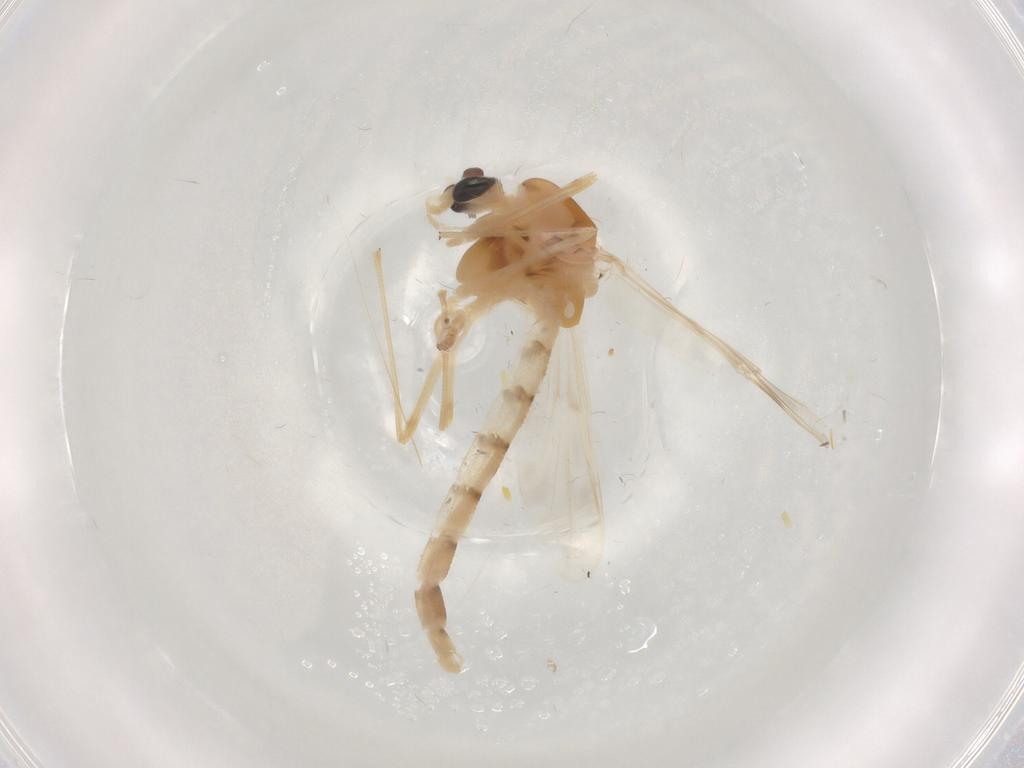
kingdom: Animalia
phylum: Arthropoda
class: Insecta
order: Diptera
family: Chironomidae
